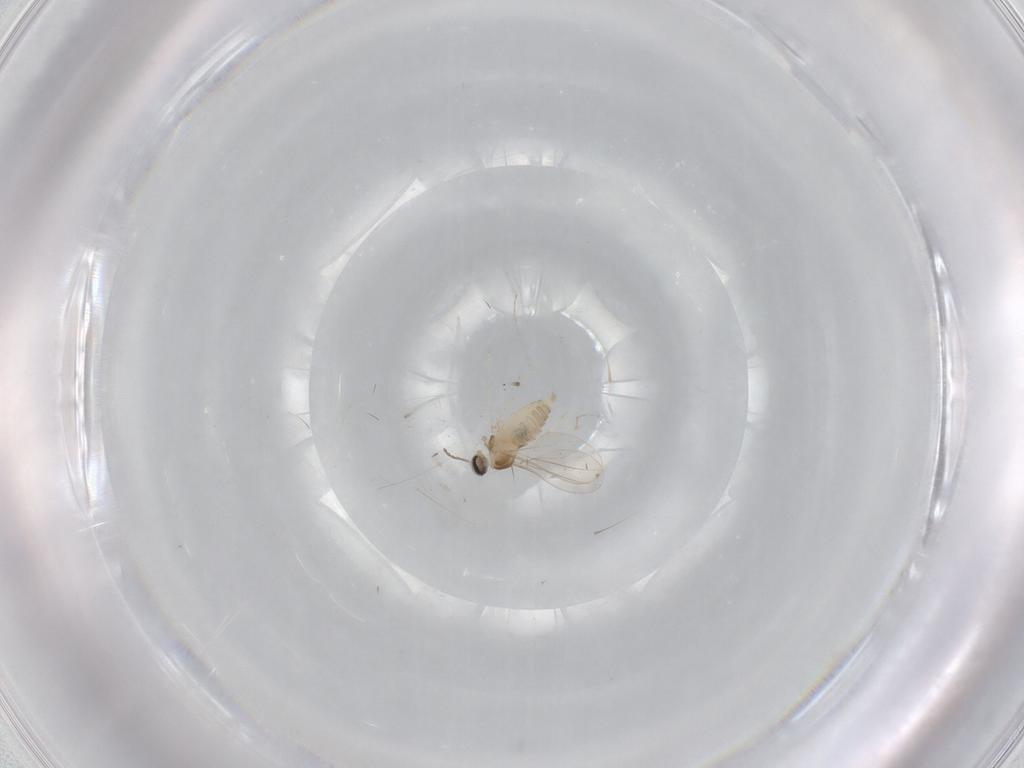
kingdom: Animalia
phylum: Arthropoda
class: Insecta
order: Diptera
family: Cecidomyiidae
